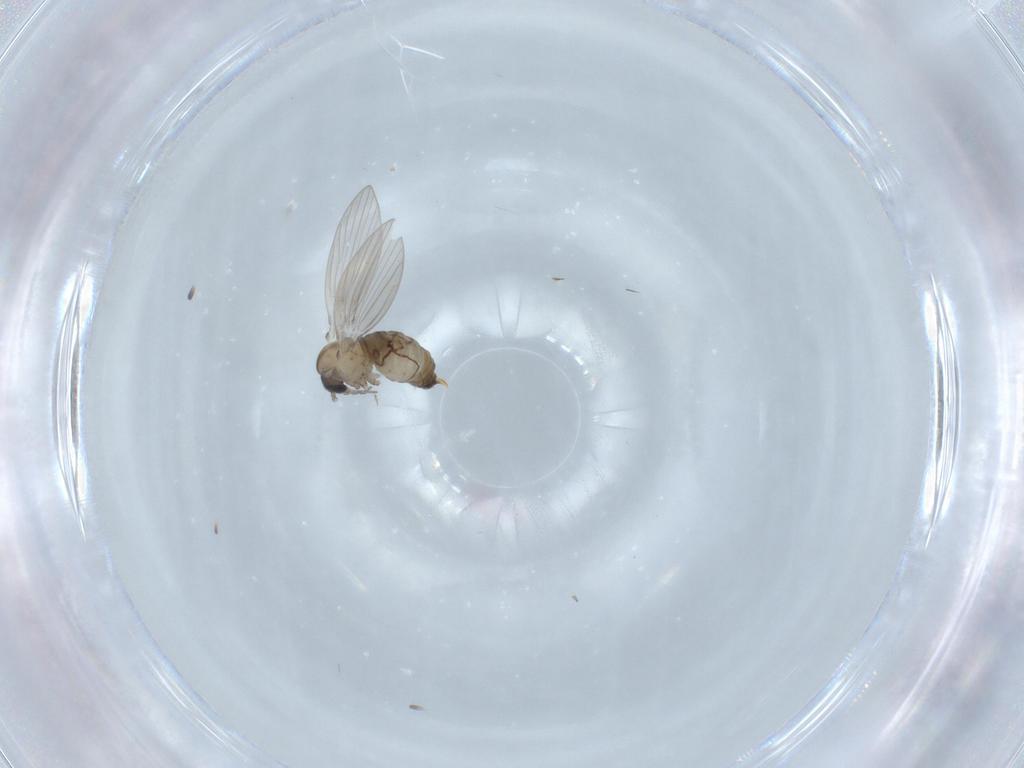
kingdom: Animalia
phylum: Arthropoda
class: Insecta
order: Diptera
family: Psychodidae
